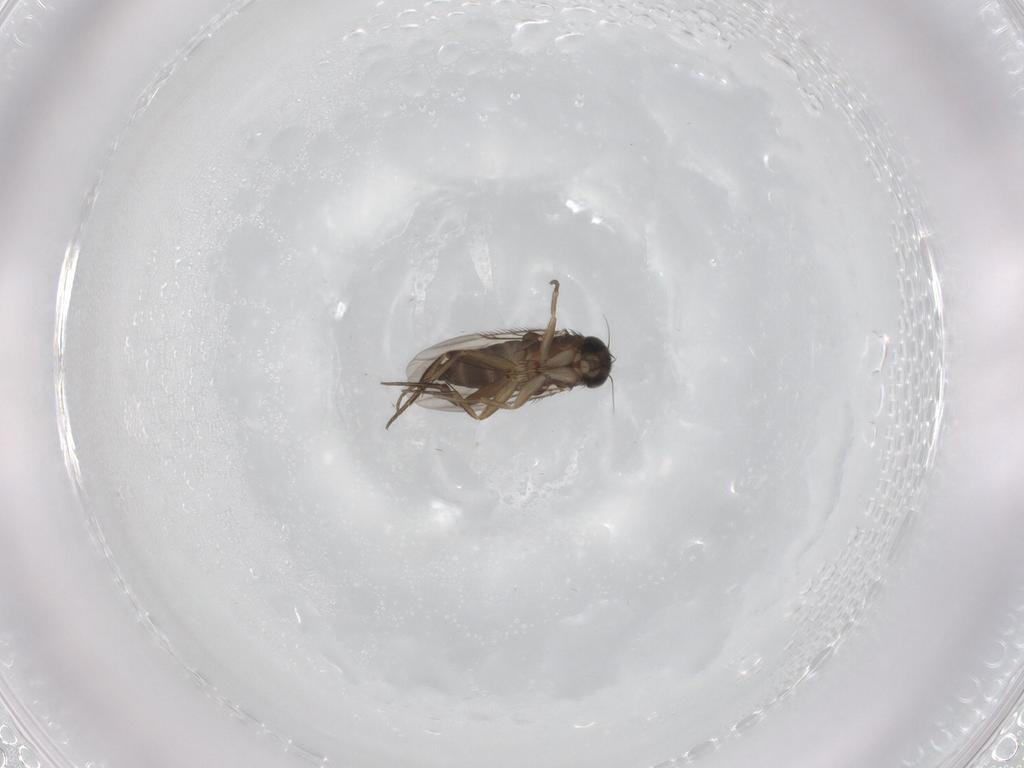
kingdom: Animalia
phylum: Arthropoda
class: Insecta
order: Diptera
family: Phoridae
